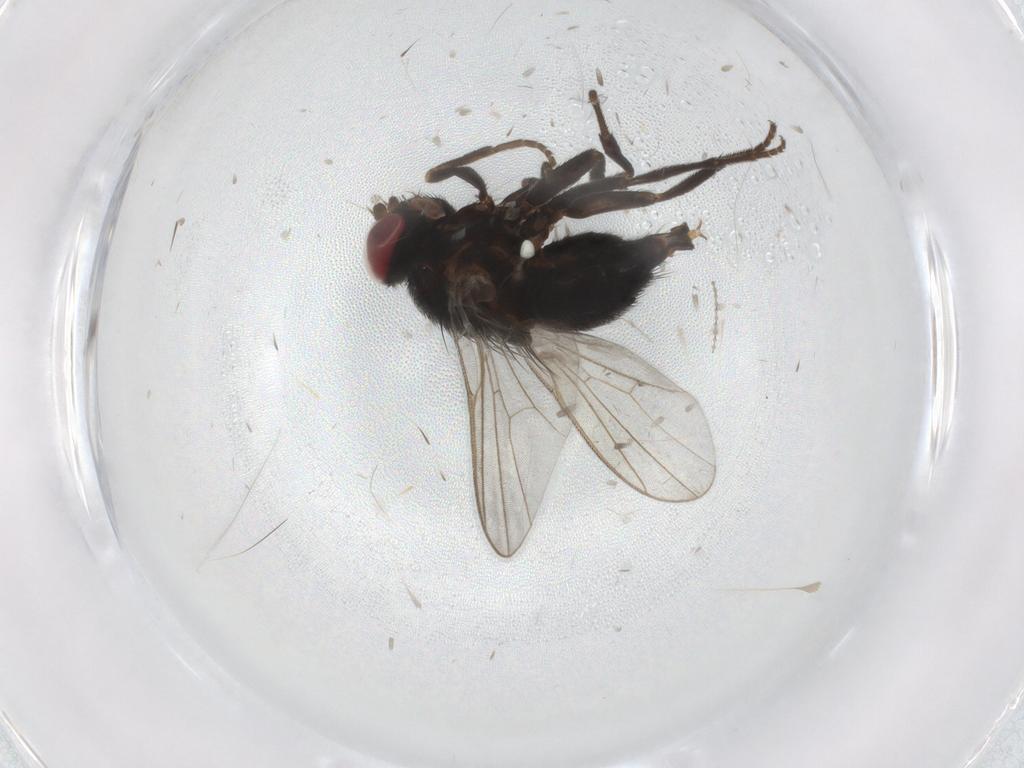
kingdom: Animalia
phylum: Arthropoda
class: Insecta
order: Diptera
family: Agromyzidae
